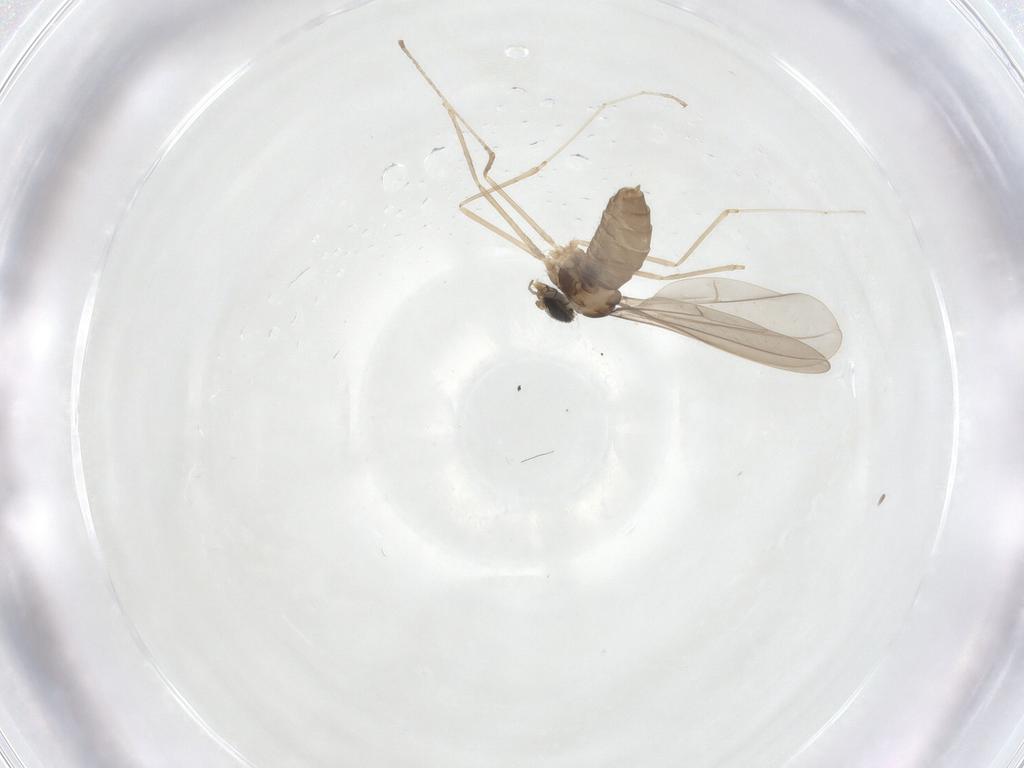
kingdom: Animalia
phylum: Arthropoda
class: Insecta
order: Diptera
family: Cecidomyiidae
